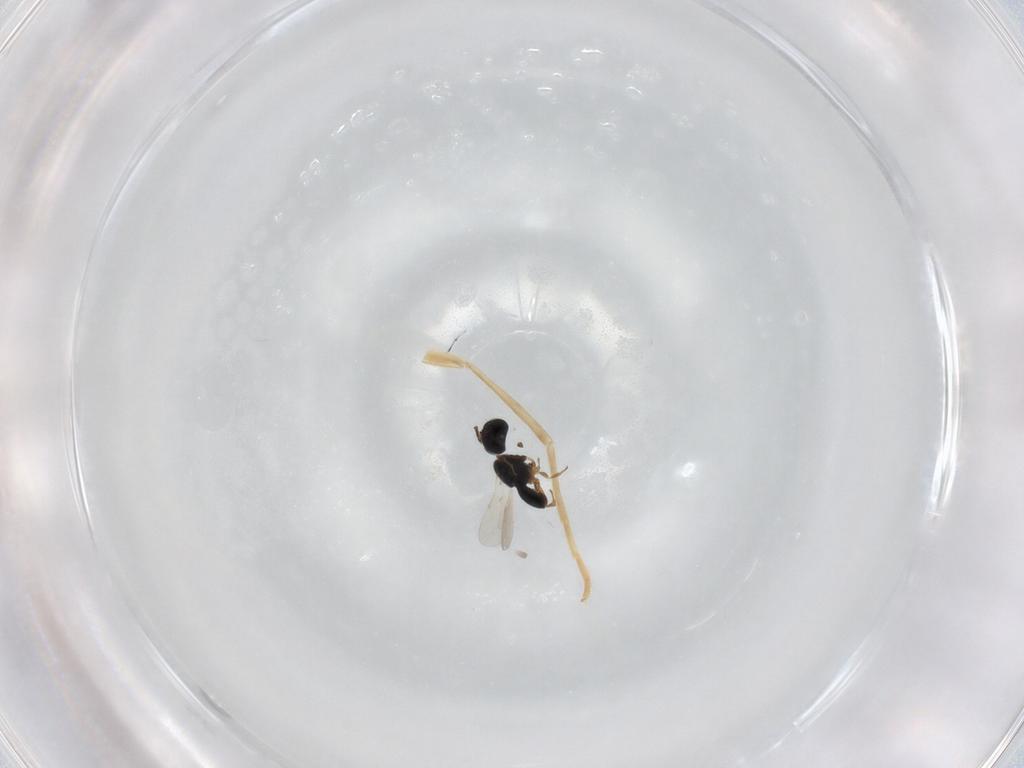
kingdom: Animalia
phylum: Arthropoda
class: Insecta
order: Hymenoptera
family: Scelionidae
